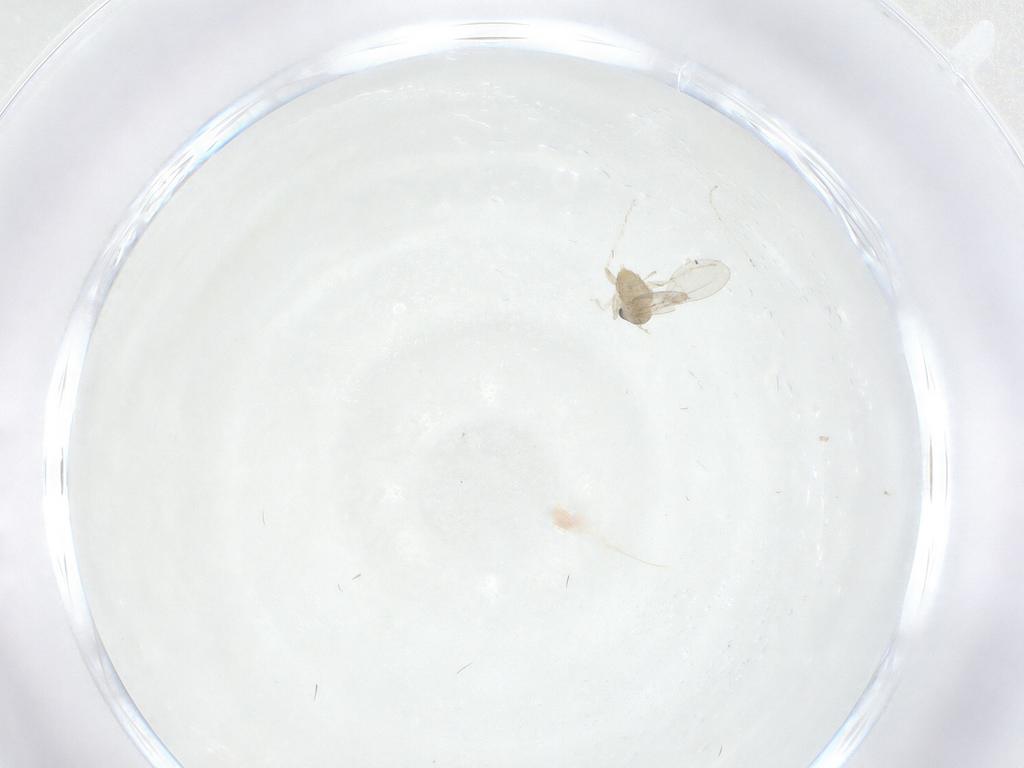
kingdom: Animalia
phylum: Arthropoda
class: Insecta
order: Diptera
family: Cecidomyiidae
